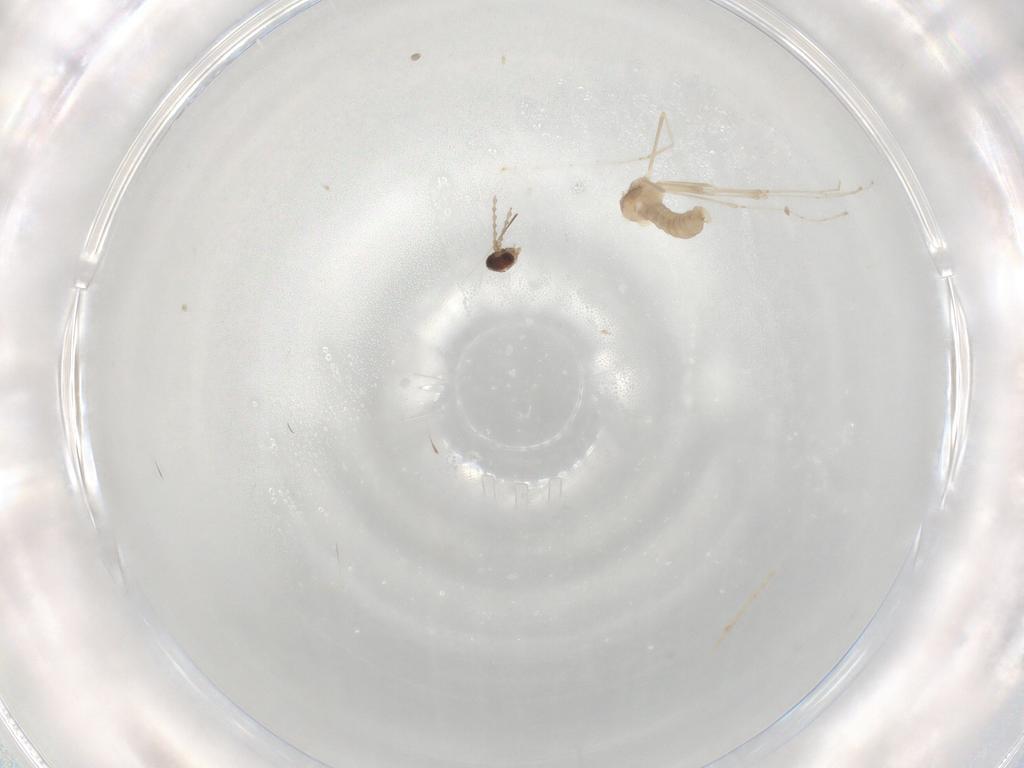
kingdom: Animalia
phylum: Arthropoda
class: Insecta
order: Diptera
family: Cecidomyiidae
